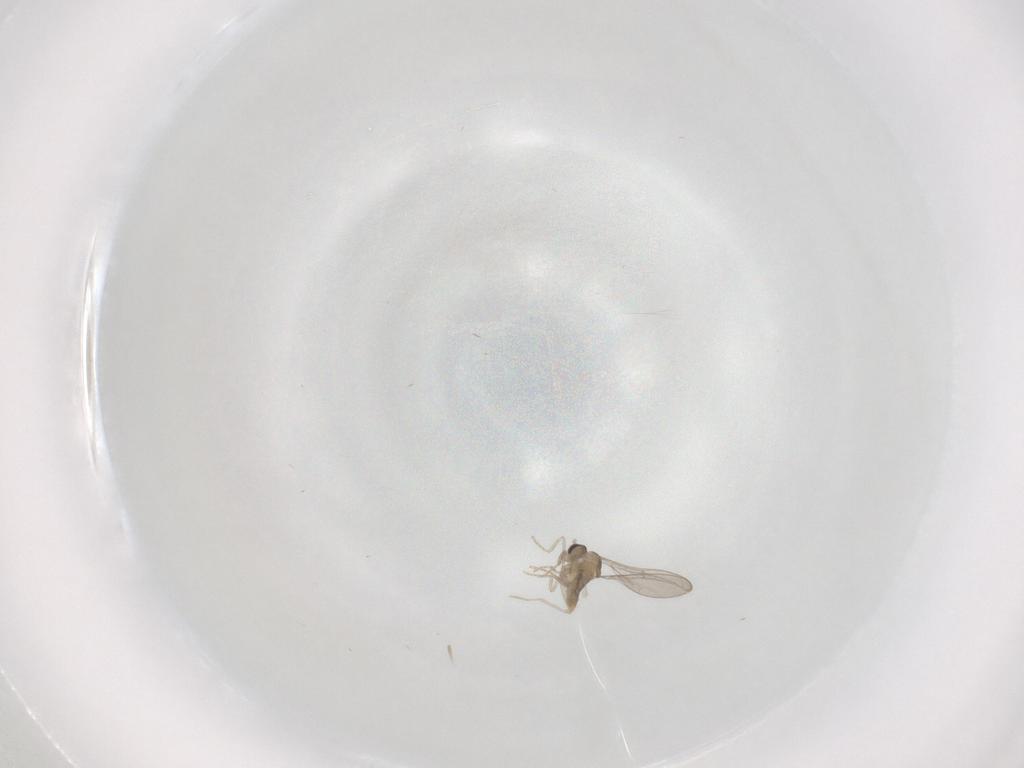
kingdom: Animalia
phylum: Arthropoda
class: Insecta
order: Diptera
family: Cecidomyiidae
